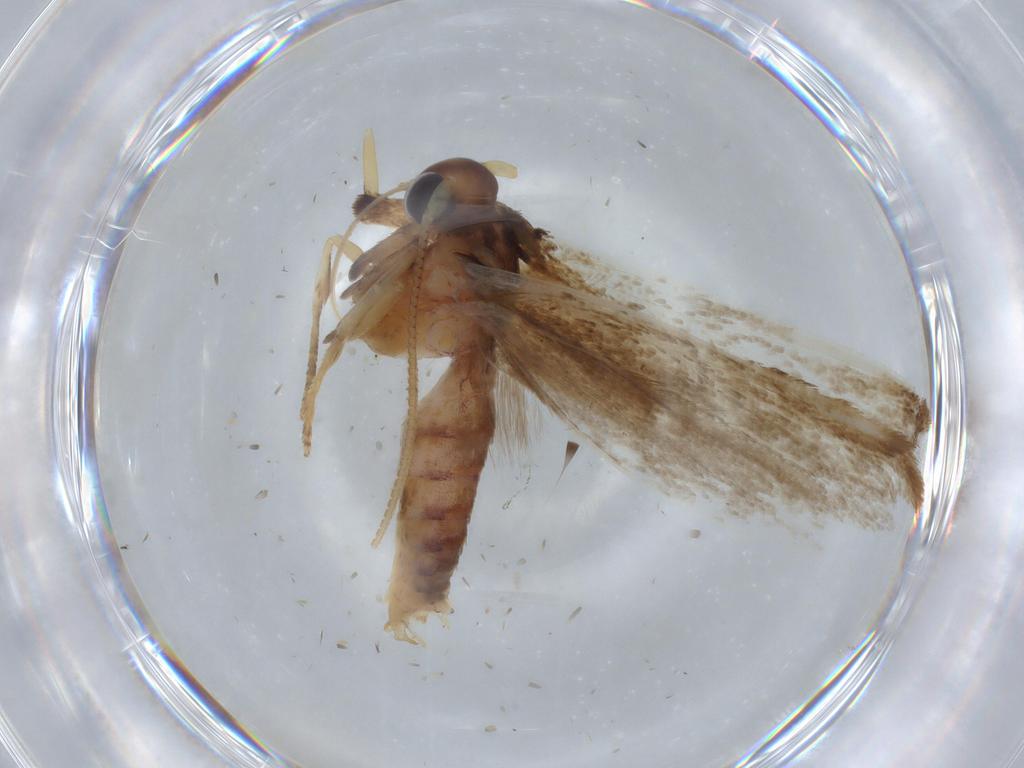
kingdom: Animalia
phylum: Arthropoda
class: Insecta
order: Lepidoptera
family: Blastobasidae
